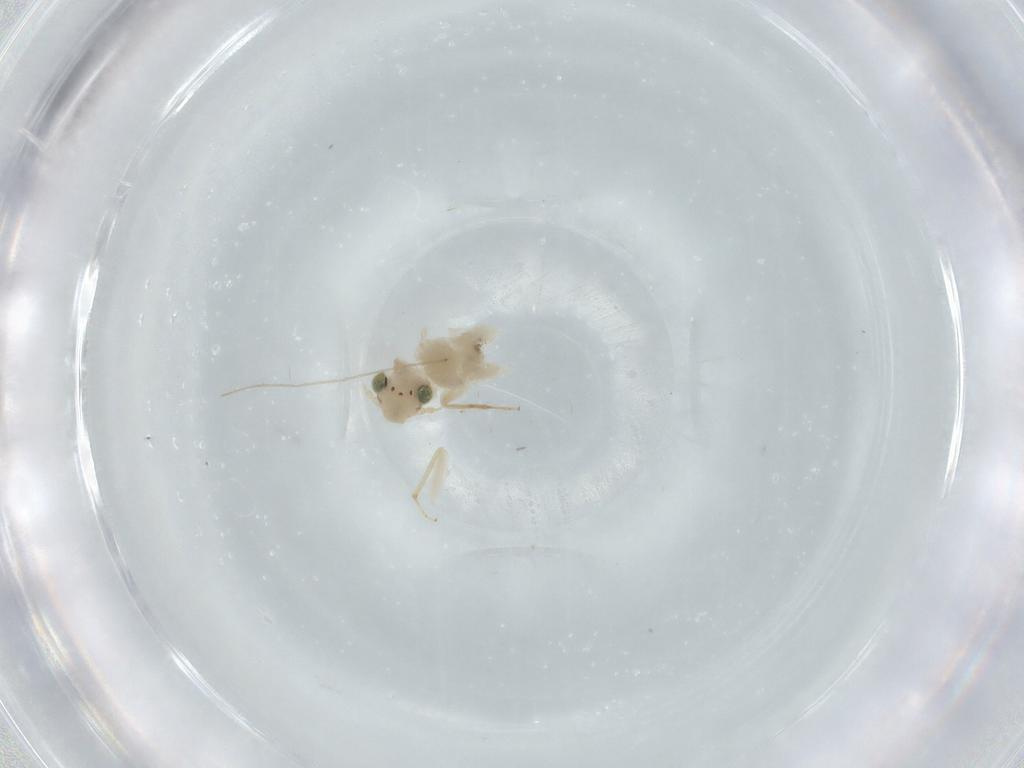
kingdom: Animalia
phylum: Arthropoda
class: Insecta
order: Psocodea
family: Lepidopsocidae
